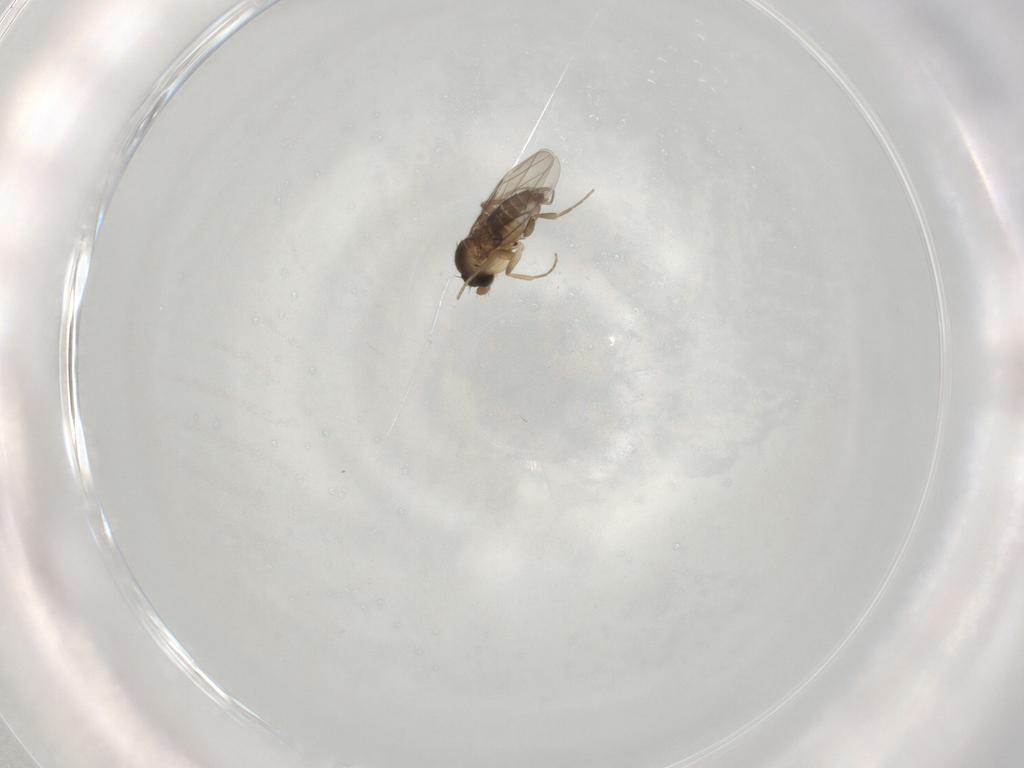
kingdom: Animalia
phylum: Arthropoda
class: Insecta
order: Diptera
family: Phoridae
